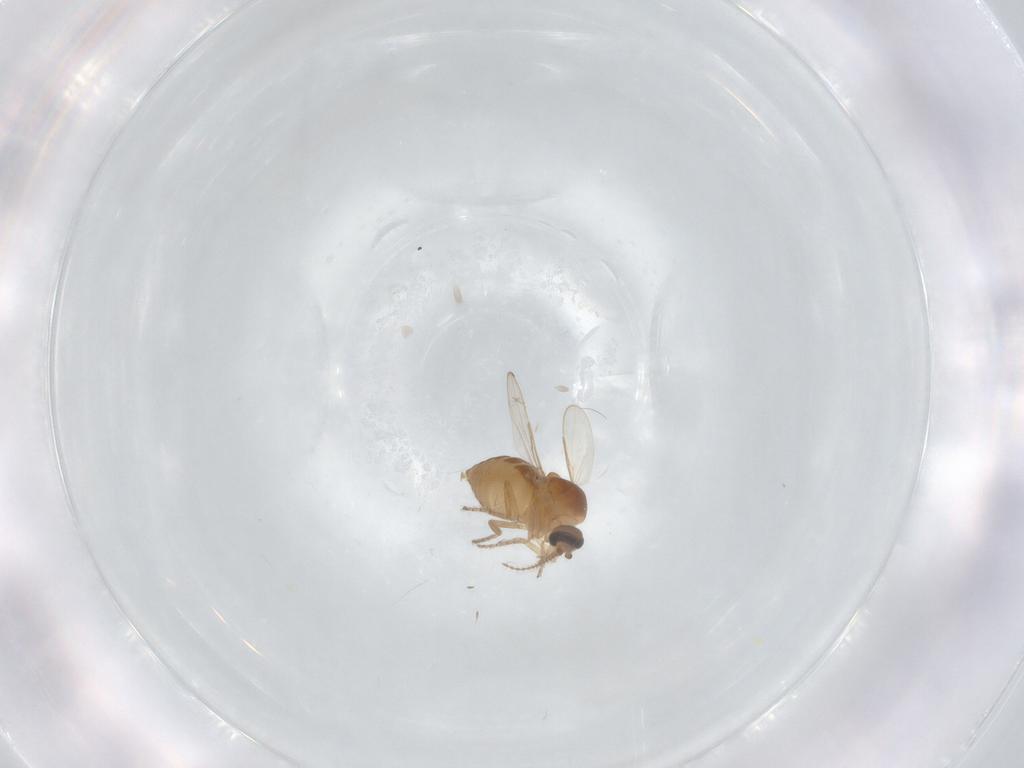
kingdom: Animalia
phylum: Arthropoda
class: Insecta
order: Diptera
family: Ceratopogonidae
